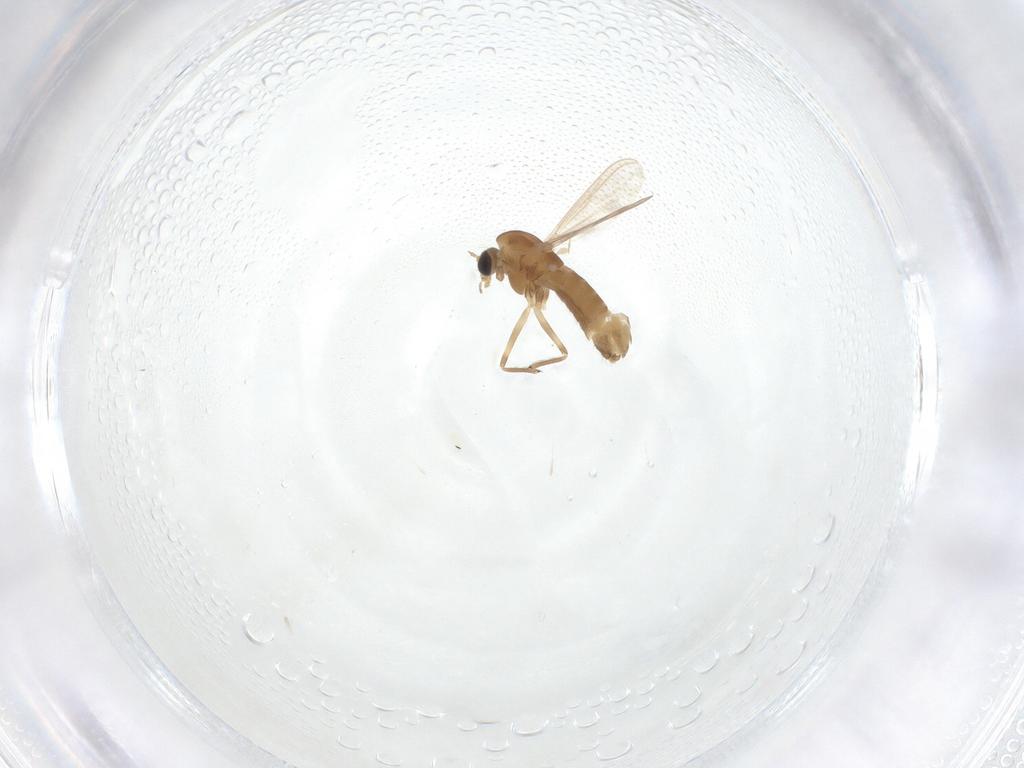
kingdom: Animalia
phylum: Arthropoda
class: Insecta
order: Diptera
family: Chironomidae
